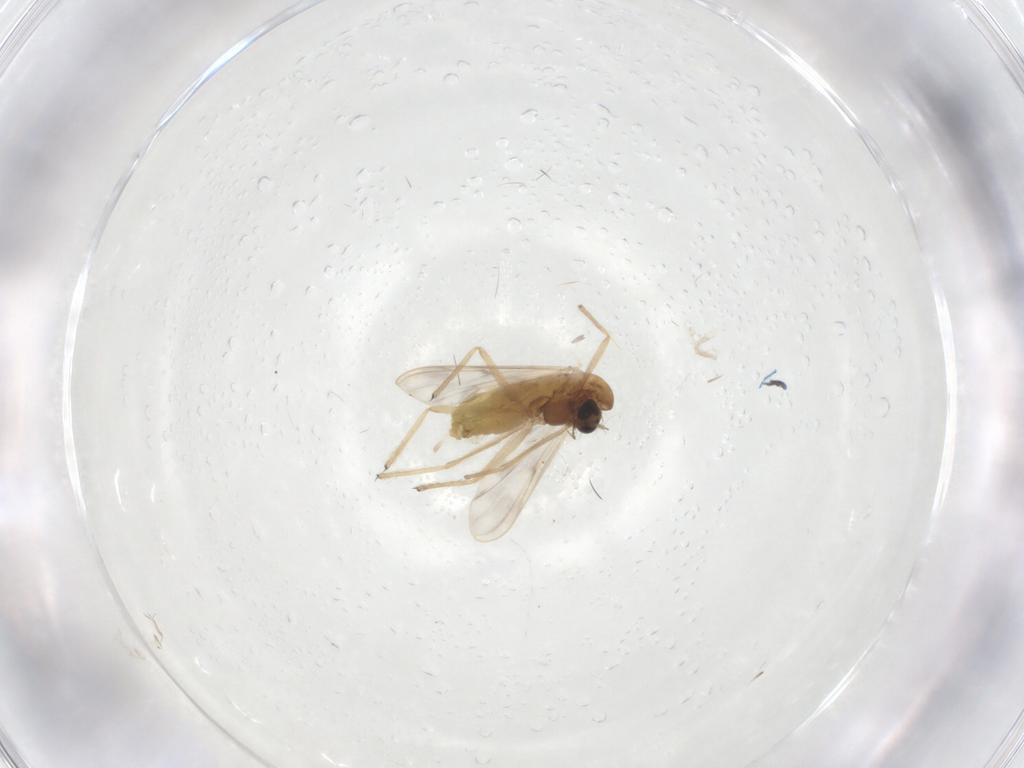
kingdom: Animalia
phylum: Arthropoda
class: Insecta
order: Diptera
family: Chironomidae
